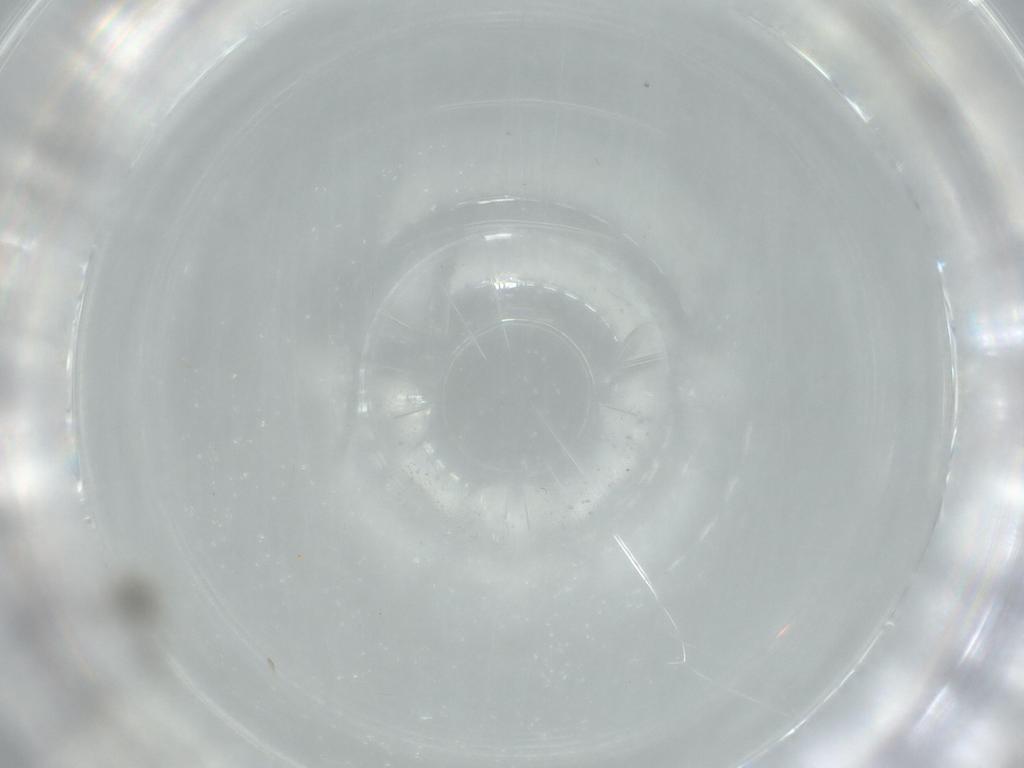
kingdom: Animalia
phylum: Arthropoda
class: Insecta
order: Diptera
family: Cecidomyiidae
